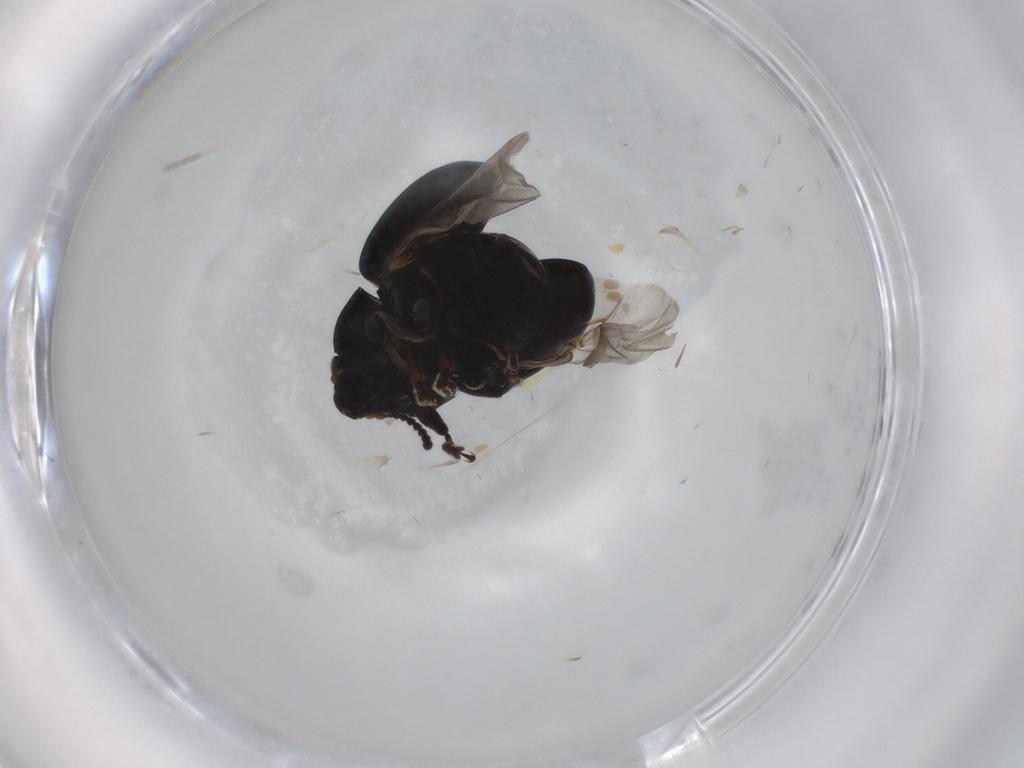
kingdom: Animalia
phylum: Arthropoda
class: Insecta
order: Coleoptera
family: Chrysomelidae
